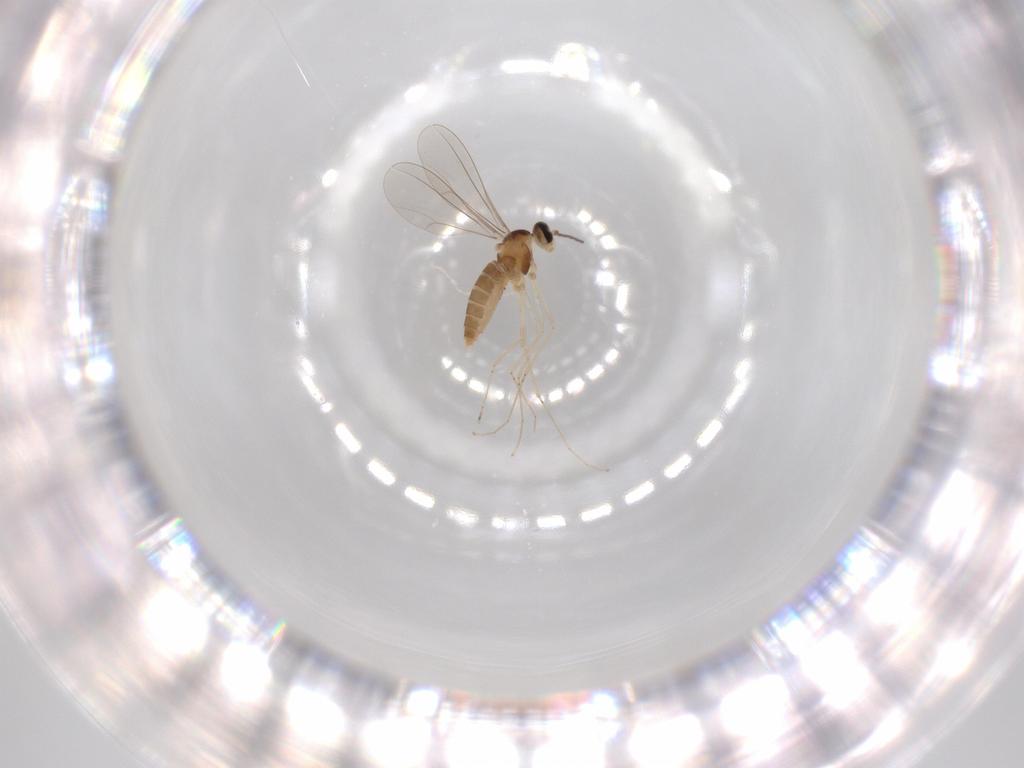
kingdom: Animalia
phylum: Arthropoda
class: Insecta
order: Diptera
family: Cecidomyiidae
